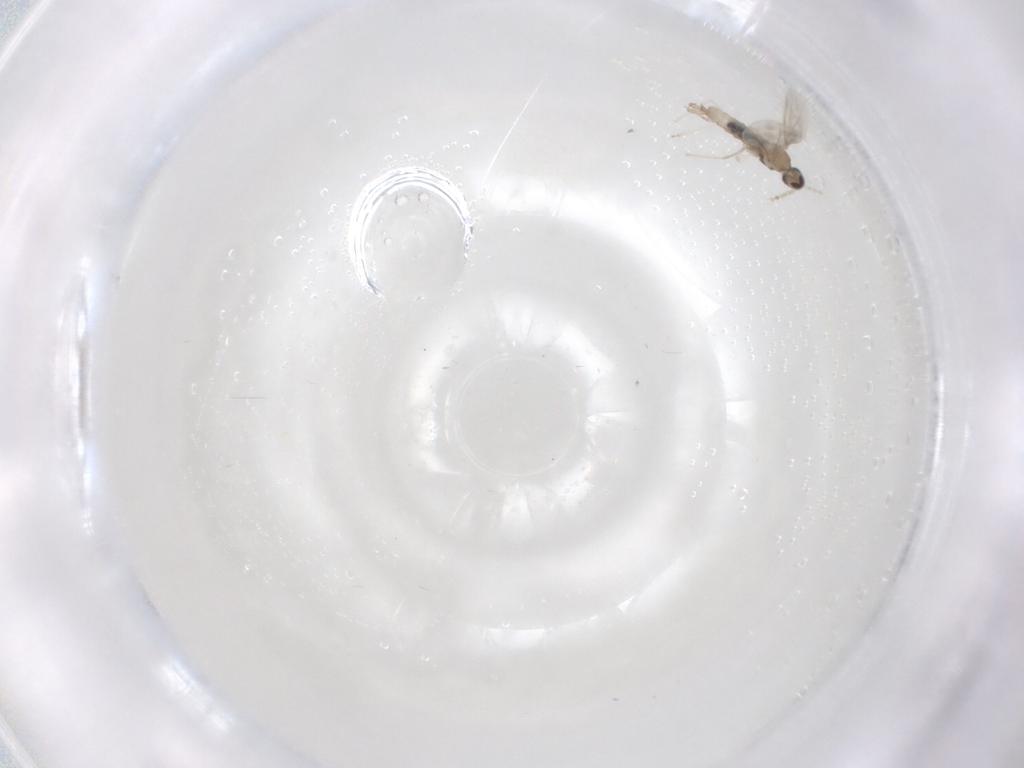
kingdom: Animalia
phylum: Arthropoda
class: Insecta
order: Diptera
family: Cecidomyiidae
